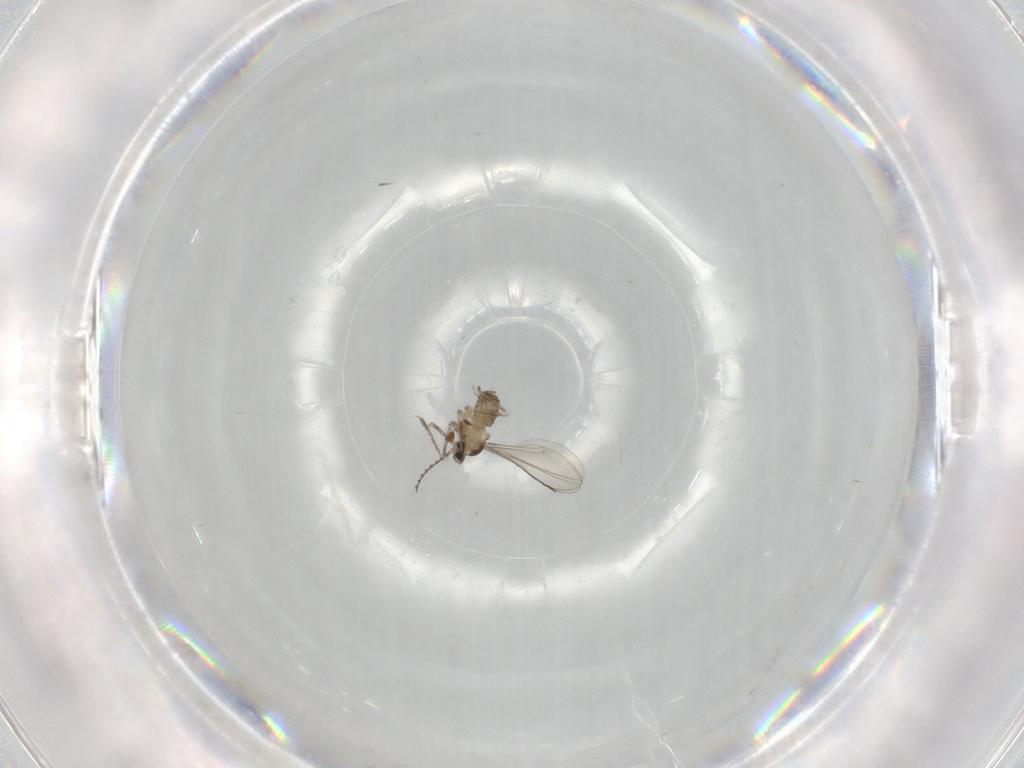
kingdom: Animalia
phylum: Arthropoda
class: Insecta
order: Diptera
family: Cecidomyiidae
